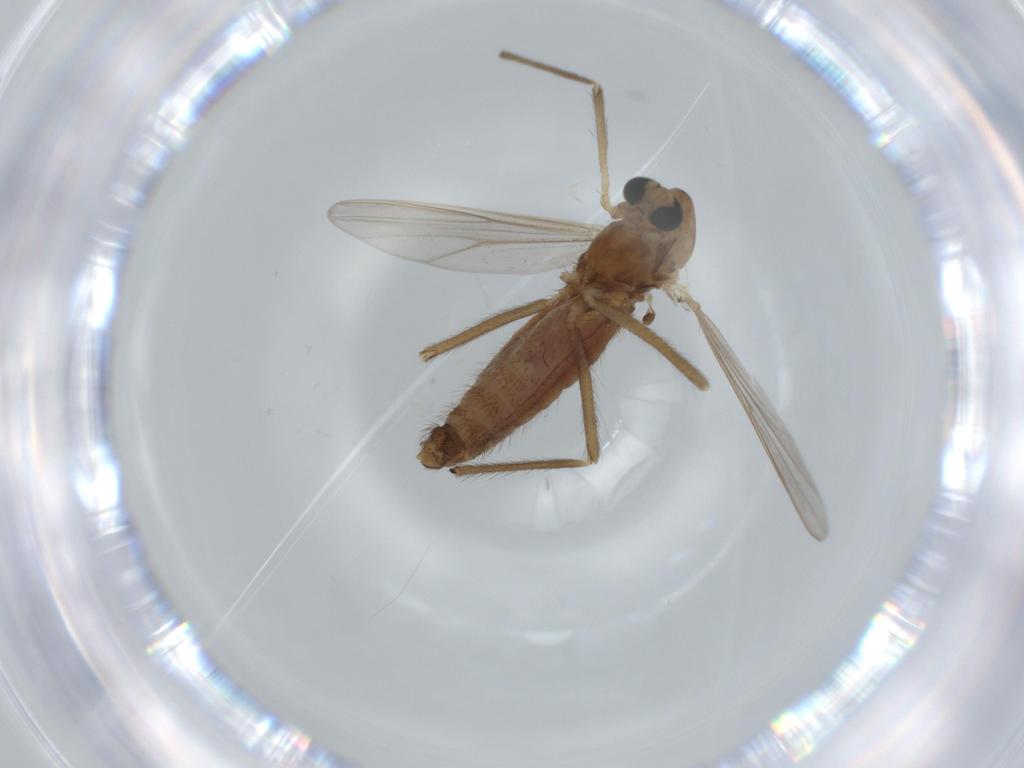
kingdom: Animalia
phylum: Arthropoda
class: Insecta
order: Diptera
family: Chironomidae
